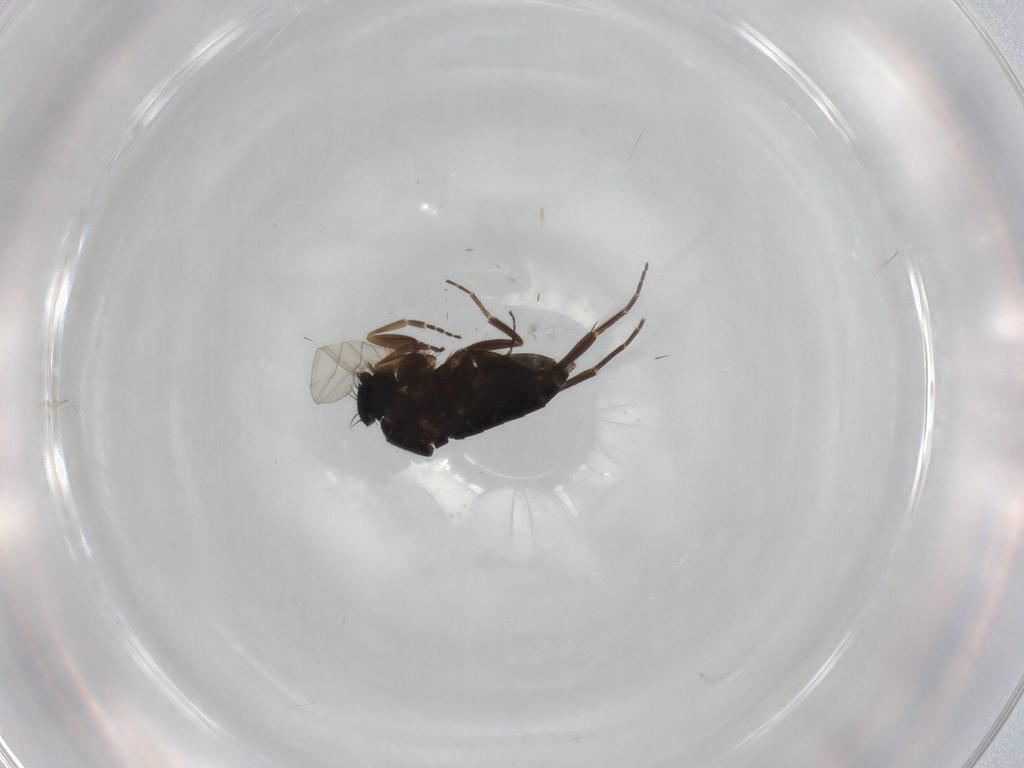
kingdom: Animalia
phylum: Arthropoda
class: Insecta
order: Diptera
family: Phoridae
